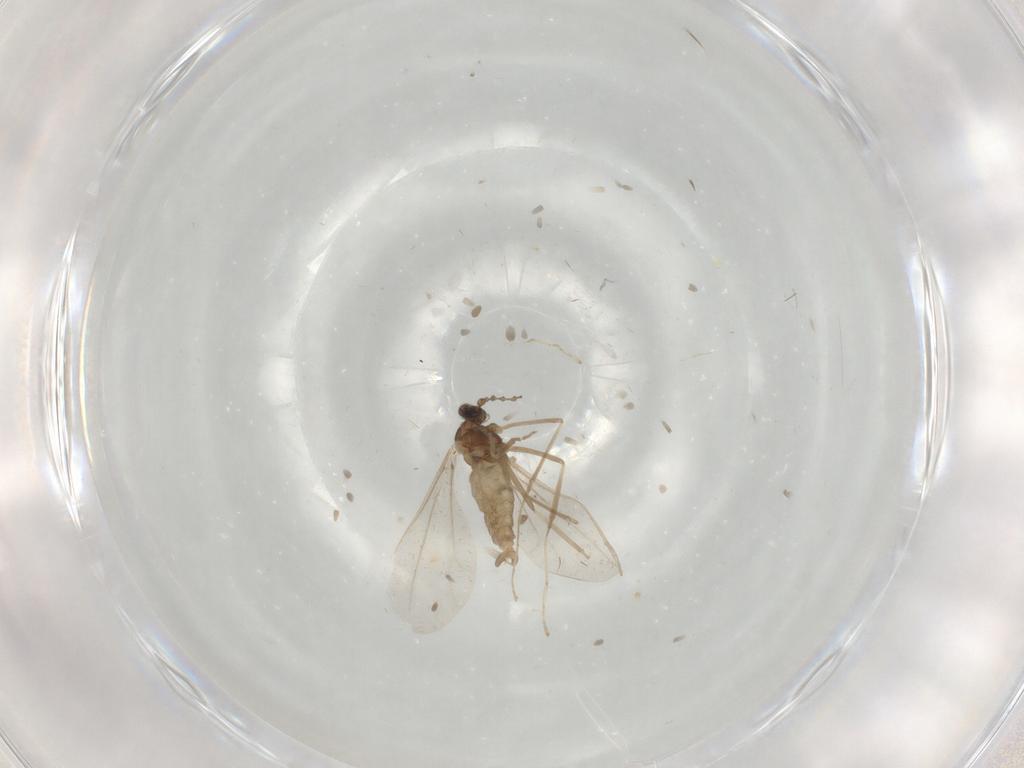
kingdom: Animalia
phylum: Arthropoda
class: Insecta
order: Diptera
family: Cecidomyiidae
